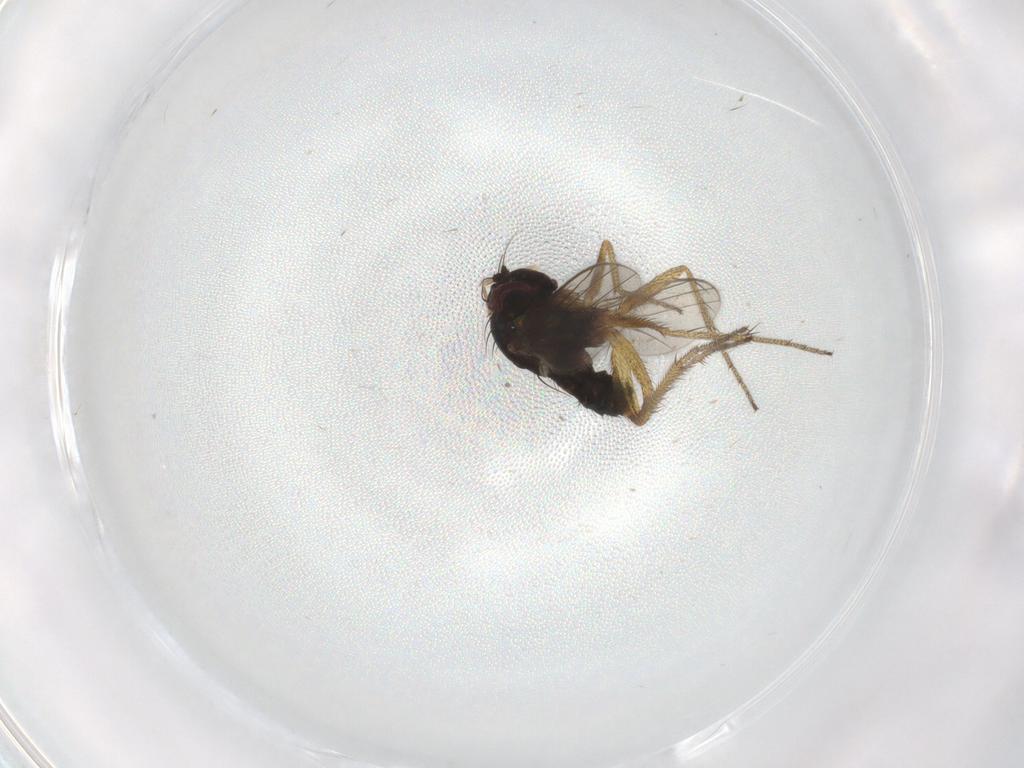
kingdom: Animalia
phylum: Arthropoda
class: Insecta
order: Diptera
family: Dolichopodidae
